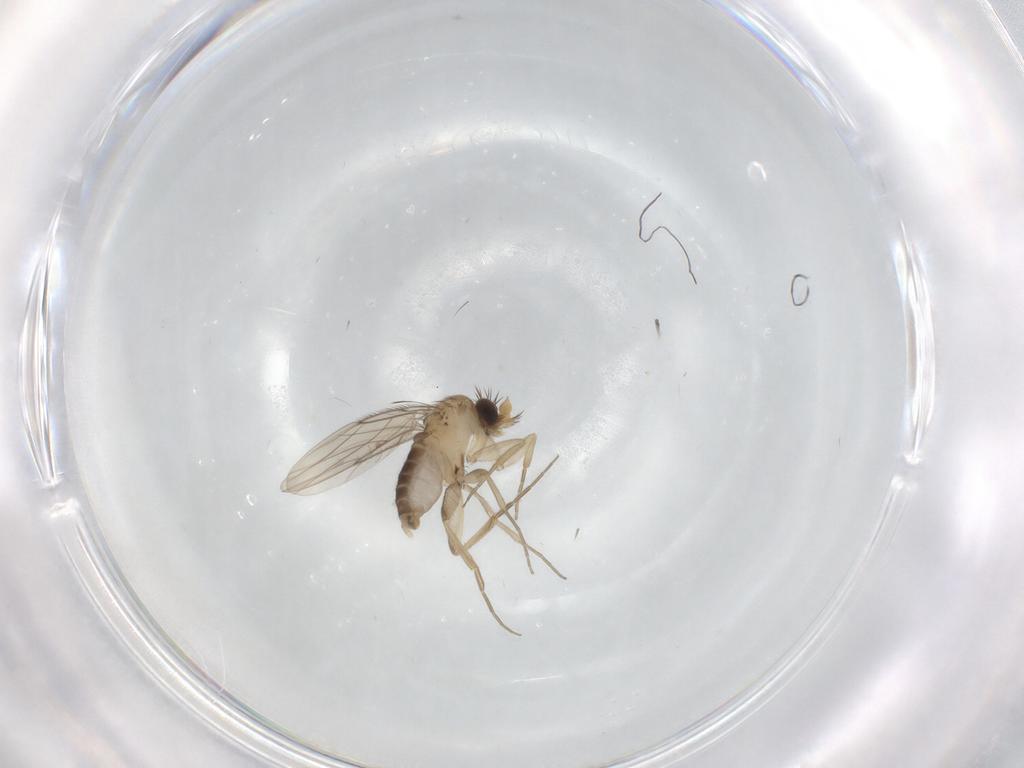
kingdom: Animalia
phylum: Arthropoda
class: Insecta
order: Diptera
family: Phoridae
